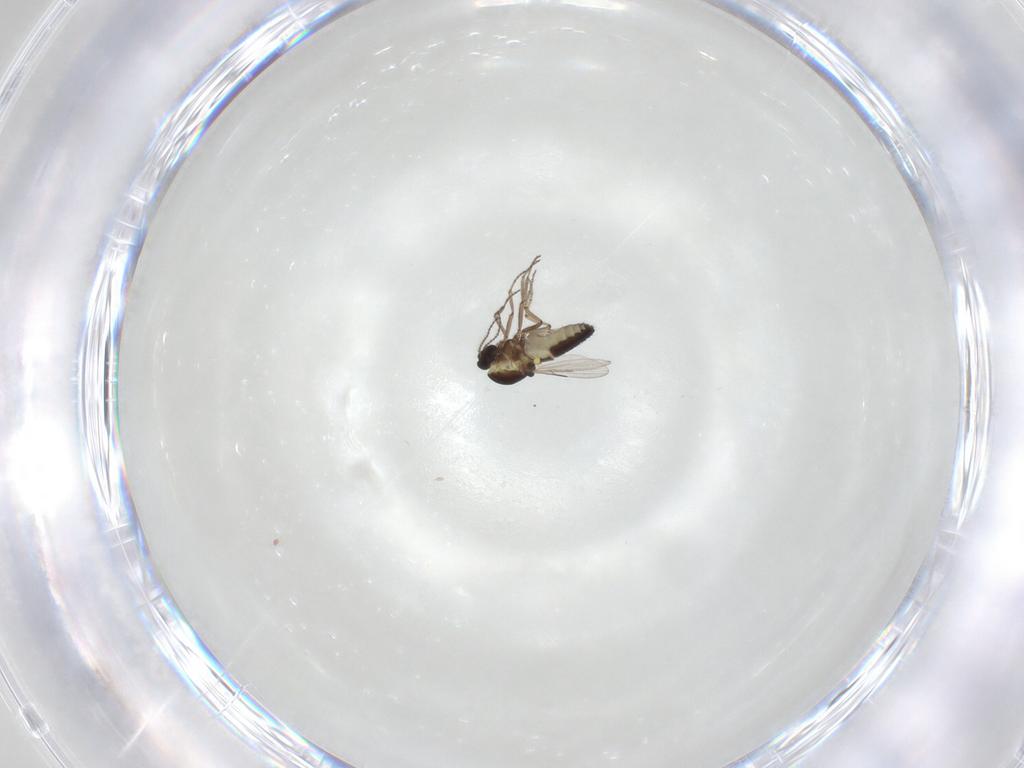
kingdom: Animalia
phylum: Arthropoda
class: Insecta
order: Diptera
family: Ceratopogonidae
